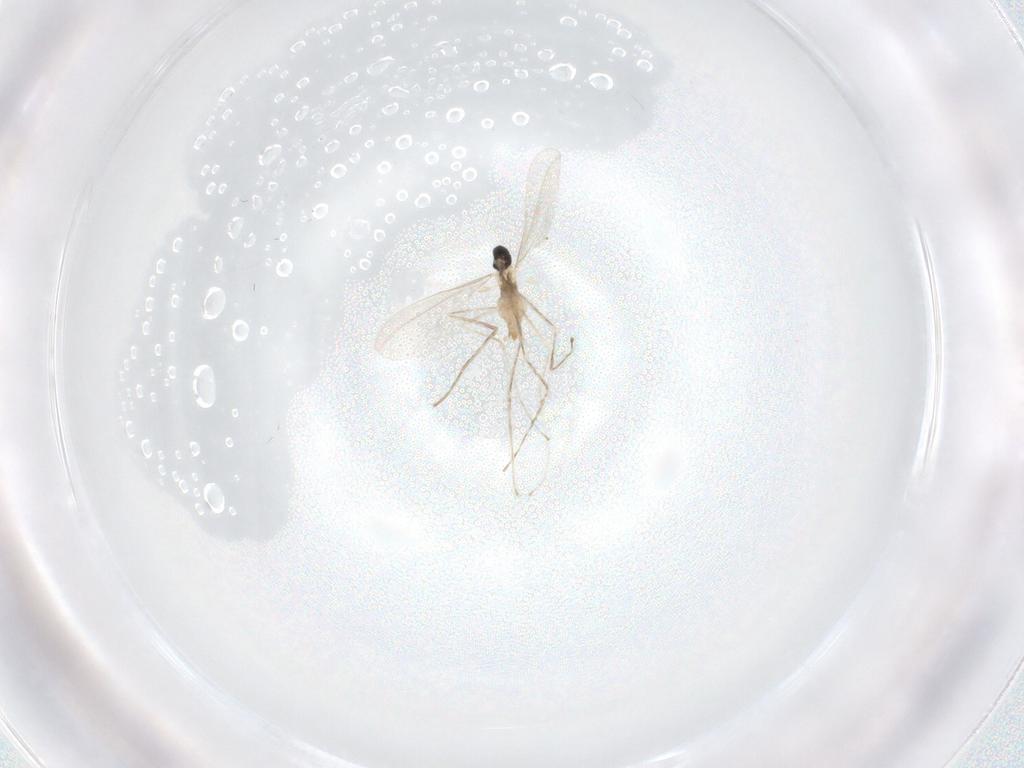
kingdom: Animalia
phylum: Arthropoda
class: Insecta
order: Diptera
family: Cecidomyiidae
